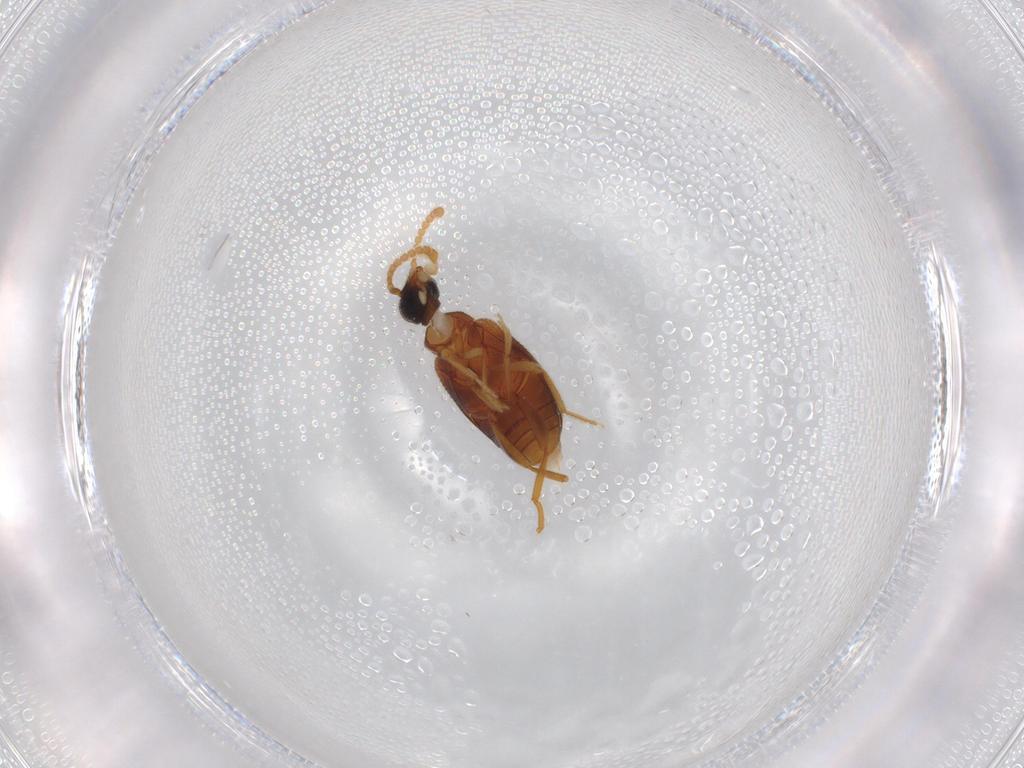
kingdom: Animalia
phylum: Arthropoda
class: Insecta
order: Coleoptera
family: Aderidae
